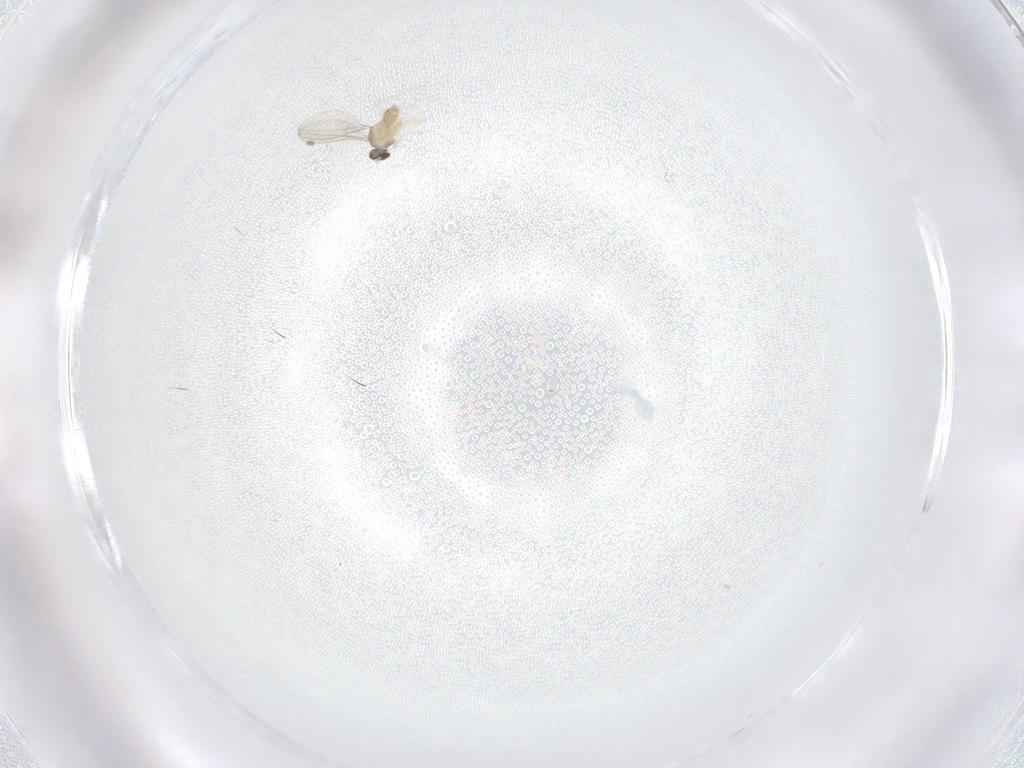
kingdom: Animalia
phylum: Arthropoda
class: Insecta
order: Diptera
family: Cecidomyiidae
